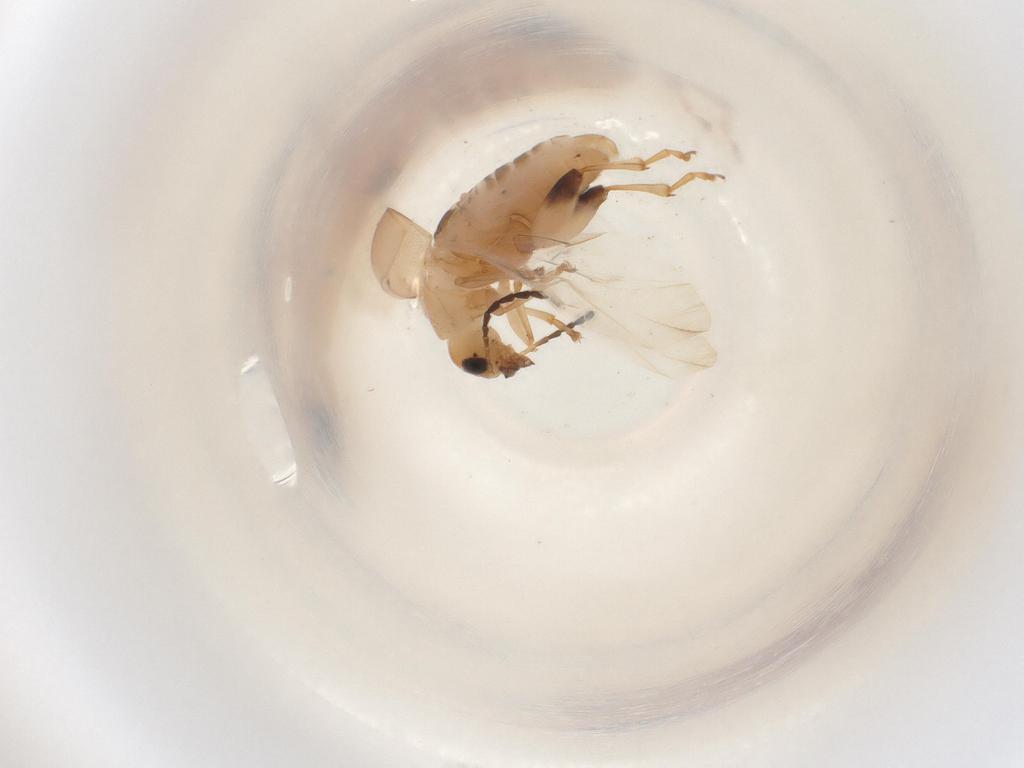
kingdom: Animalia
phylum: Arthropoda
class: Insecta
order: Coleoptera
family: Chrysomelidae
